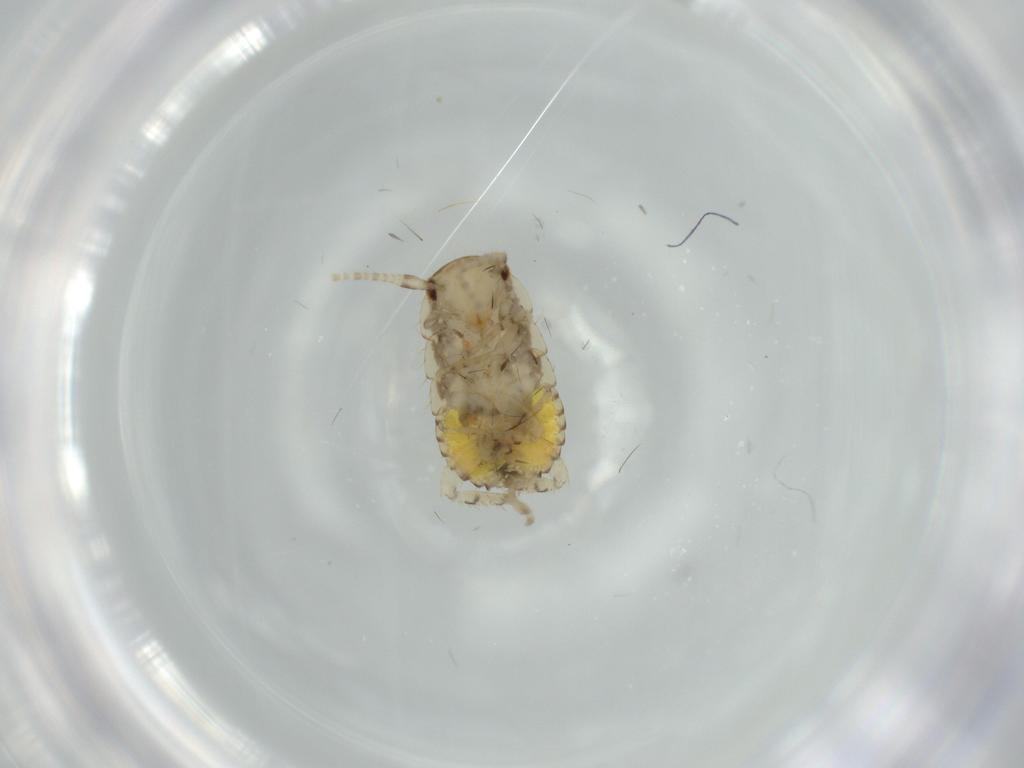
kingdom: Animalia
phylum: Arthropoda
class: Insecta
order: Blattodea
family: Ectobiidae
